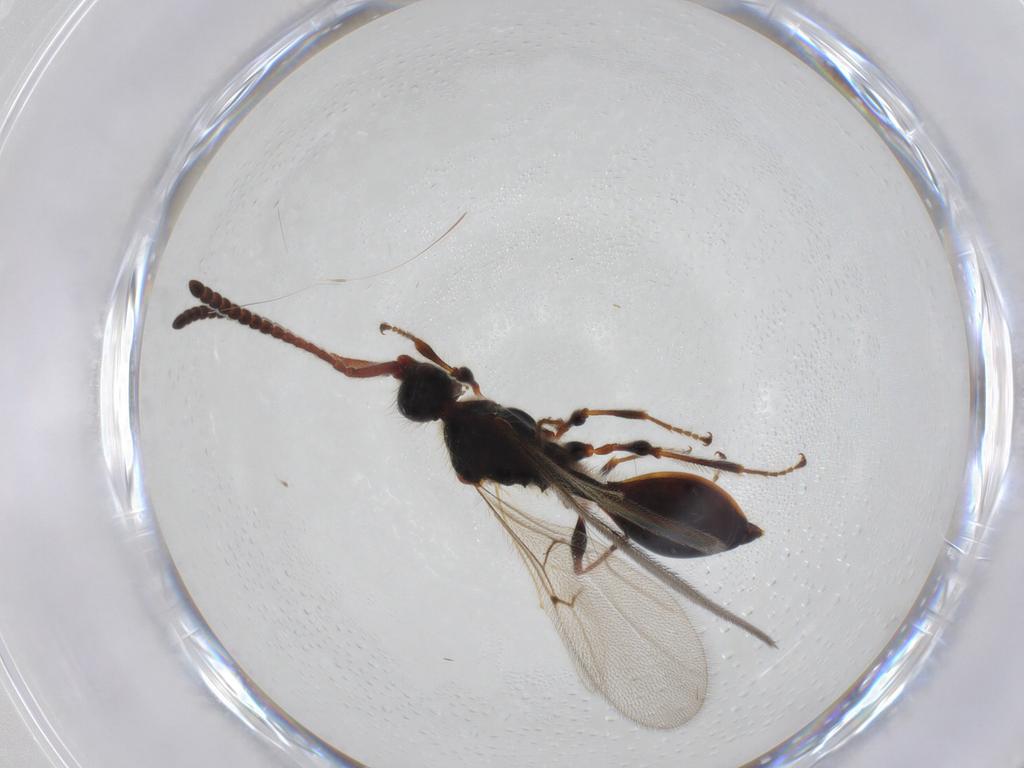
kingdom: Animalia
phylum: Arthropoda
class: Insecta
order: Hymenoptera
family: Diapriidae
